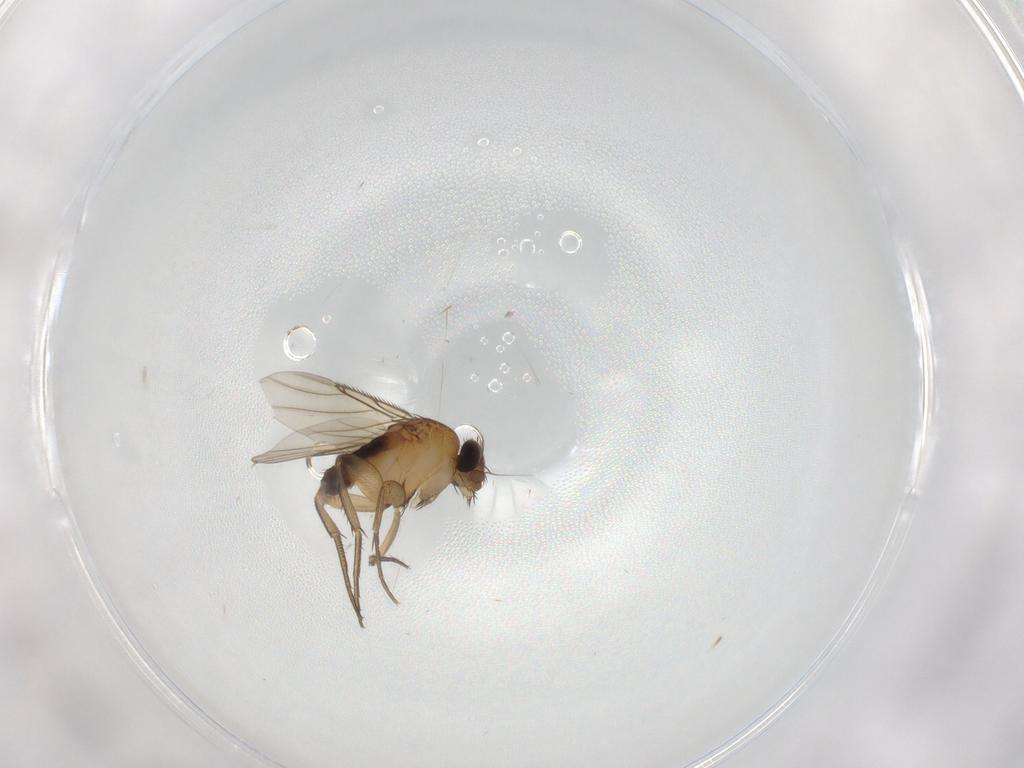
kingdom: Animalia
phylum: Arthropoda
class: Insecta
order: Diptera
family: Phoridae
